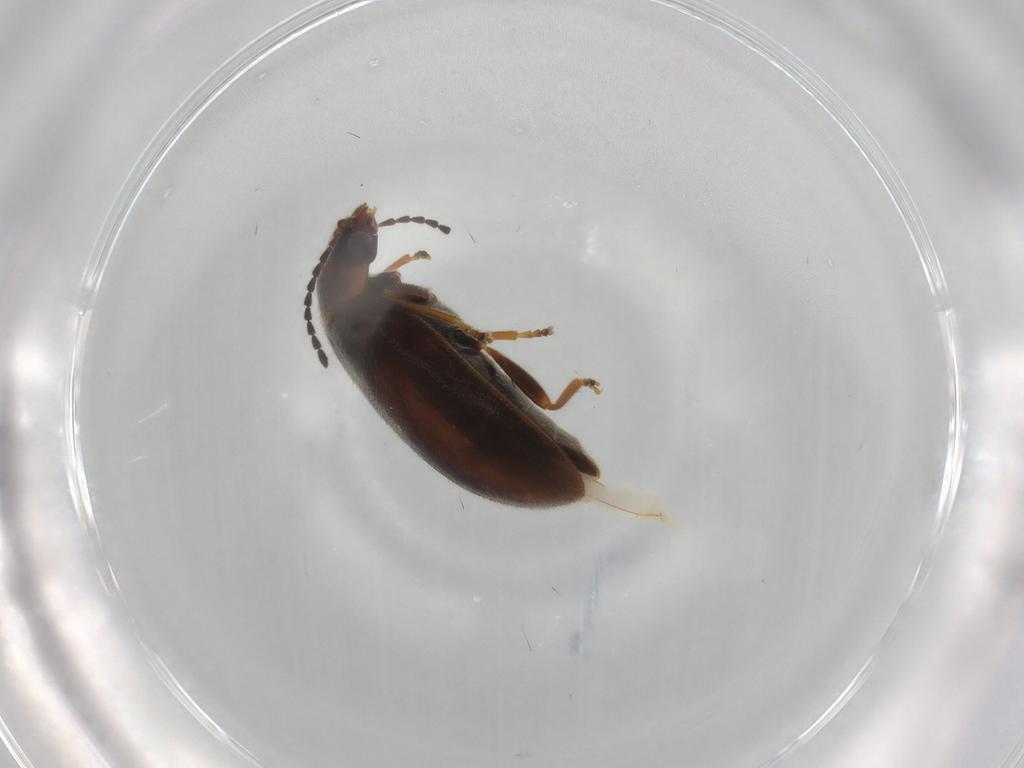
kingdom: Animalia
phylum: Arthropoda
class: Insecta
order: Coleoptera
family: Scirtidae
